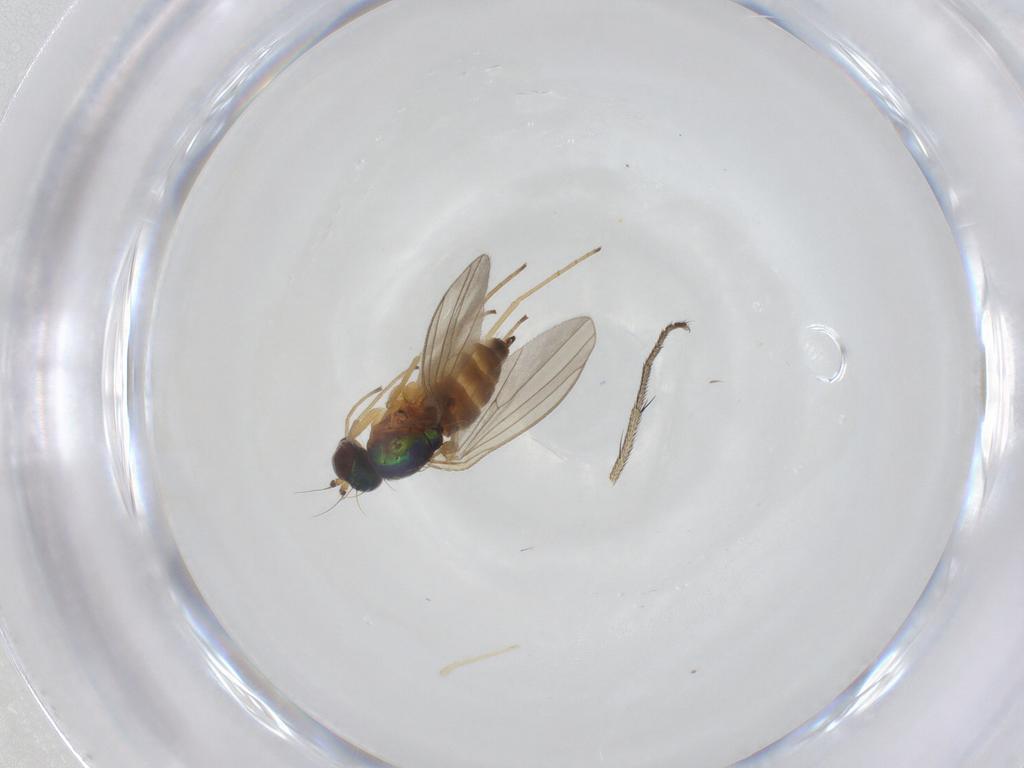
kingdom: Animalia
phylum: Arthropoda
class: Insecta
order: Diptera
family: Dolichopodidae
